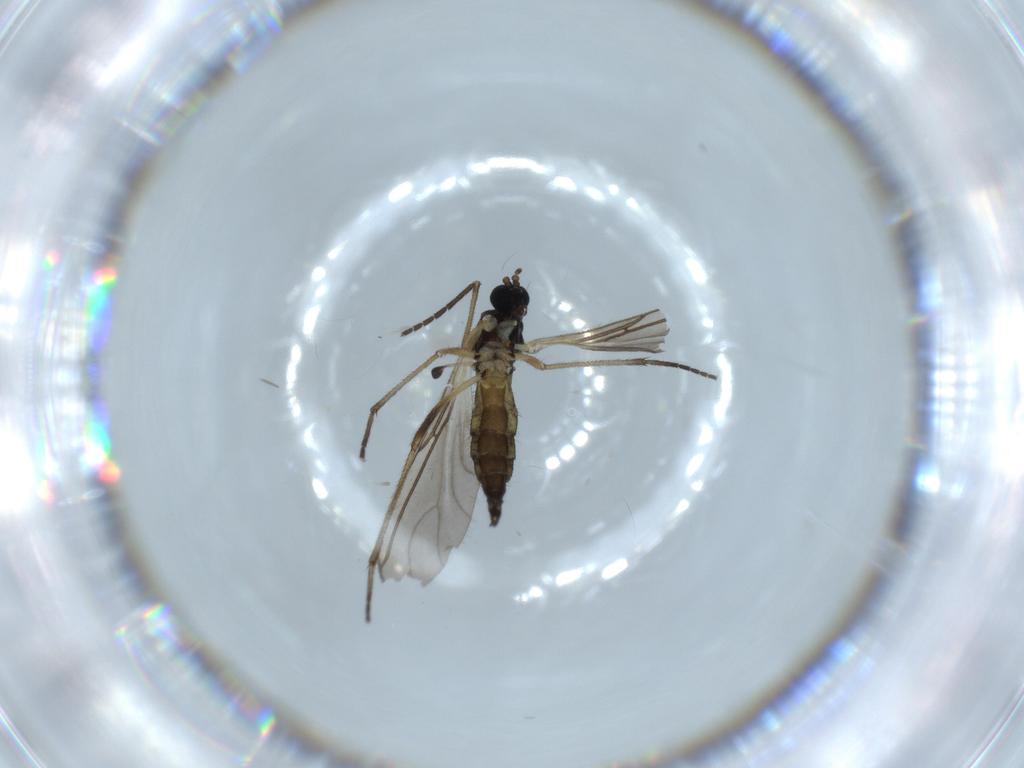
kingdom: Animalia
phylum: Arthropoda
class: Insecta
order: Diptera
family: Sciaridae
